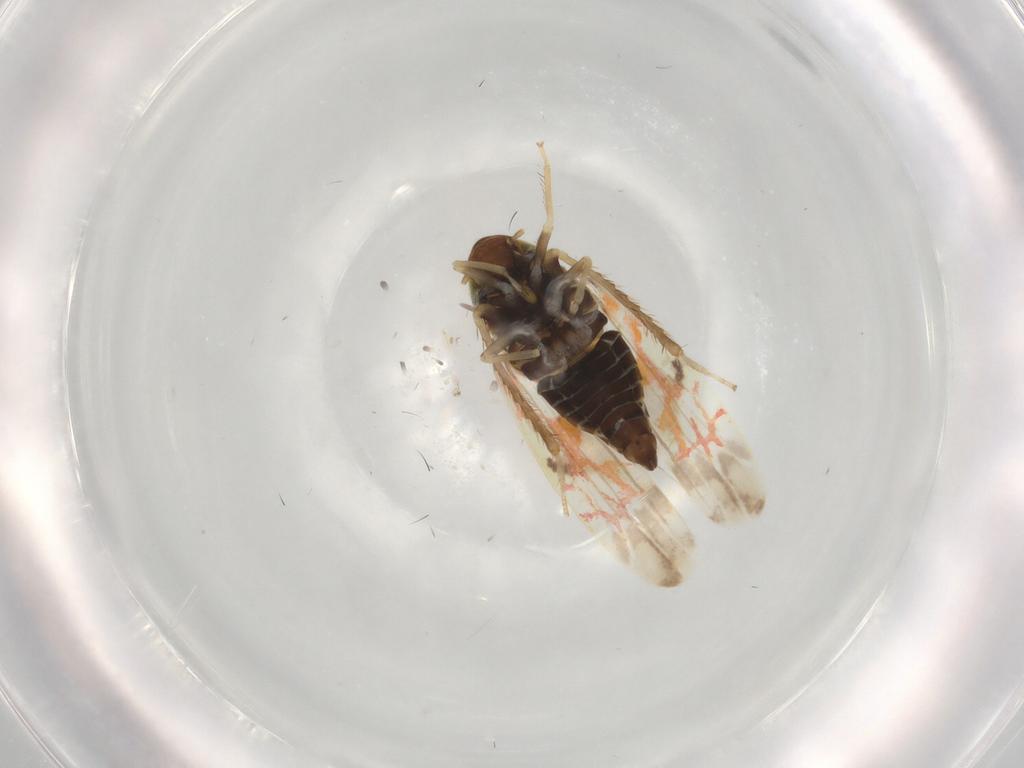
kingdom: Animalia
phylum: Arthropoda
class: Insecta
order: Hemiptera
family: Cicadellidae
